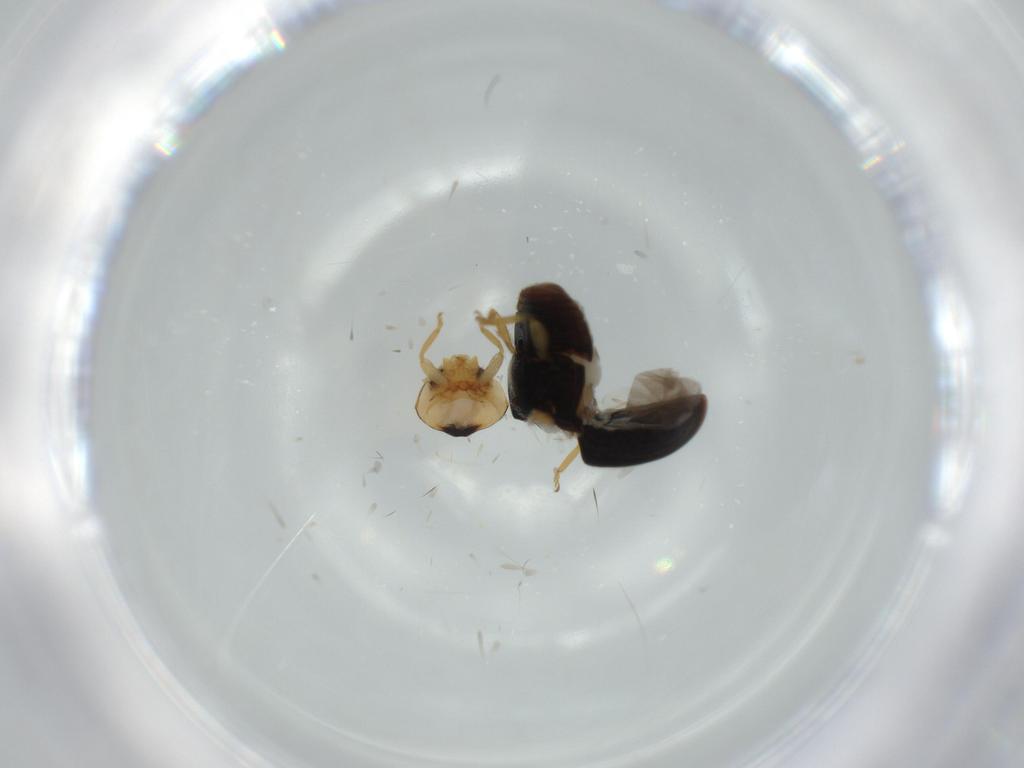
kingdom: Animalia
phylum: Arthropoda
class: Insecta
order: Coleoptera
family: Coccinellidae
